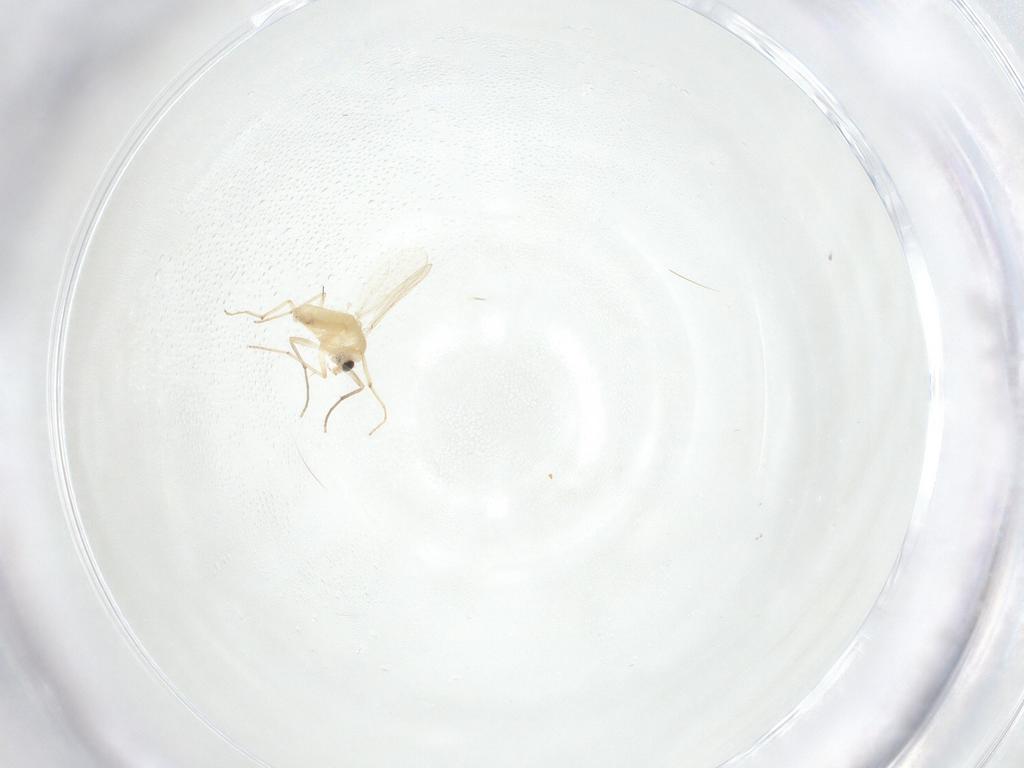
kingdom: Animalia
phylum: Arthropoda
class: Insecta
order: Diptera
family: Chironomidae
